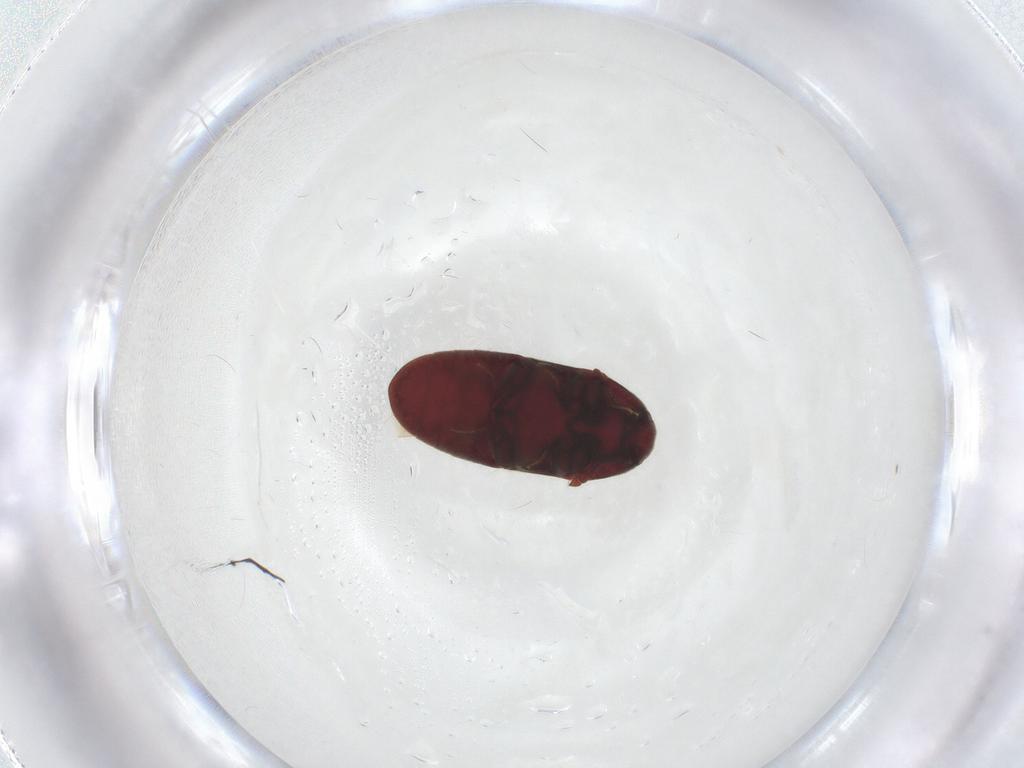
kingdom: Animalia
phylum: Arthropoda
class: Insecta
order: Coleoptera
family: Throscidae
